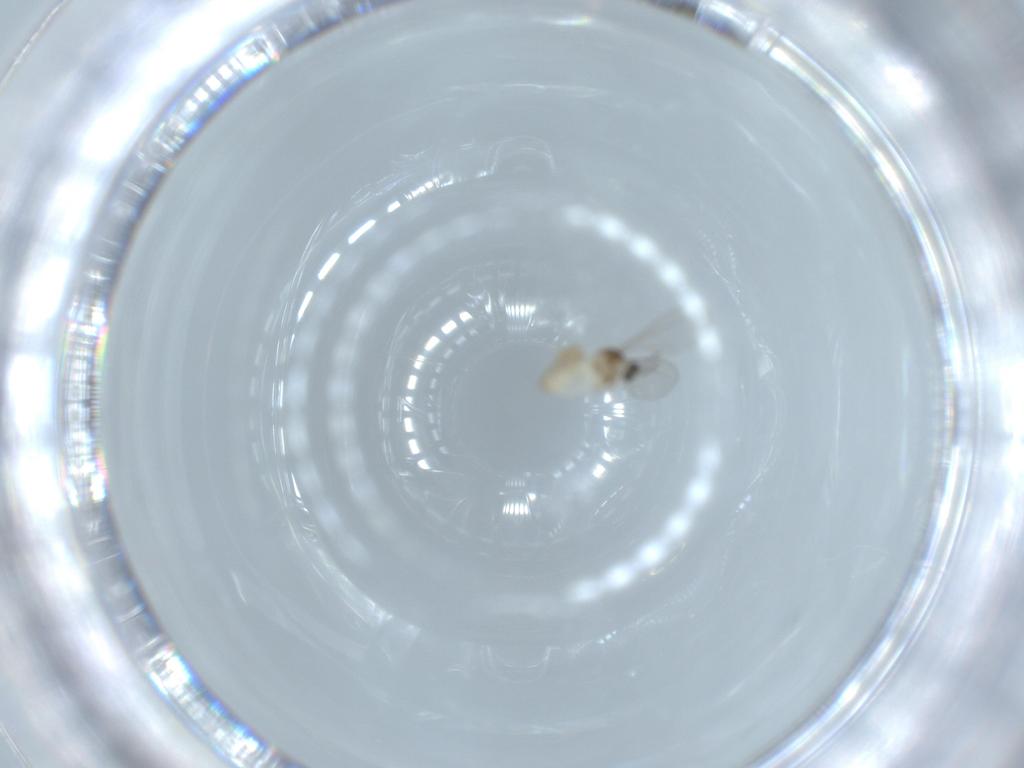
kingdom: Animalia
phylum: Arthropoda
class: Insecta
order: Diptera
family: Cecidomyiidae
